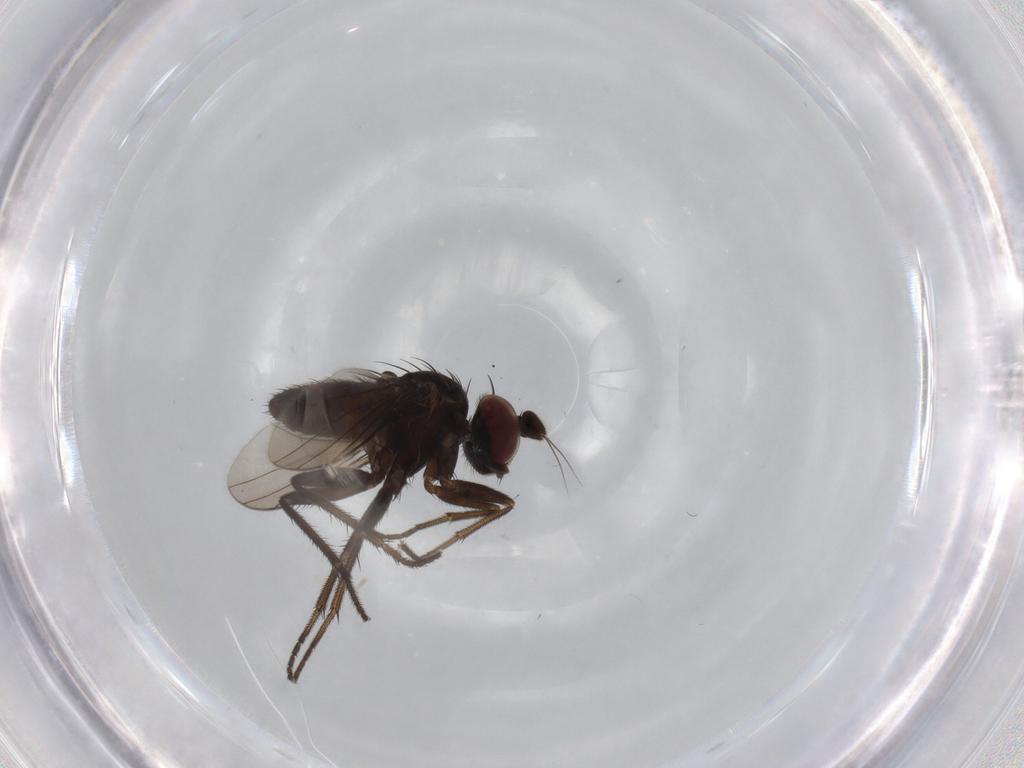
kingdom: Animalia
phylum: Arthropoda
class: Insecta
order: Diptera
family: Dolichopodidae
